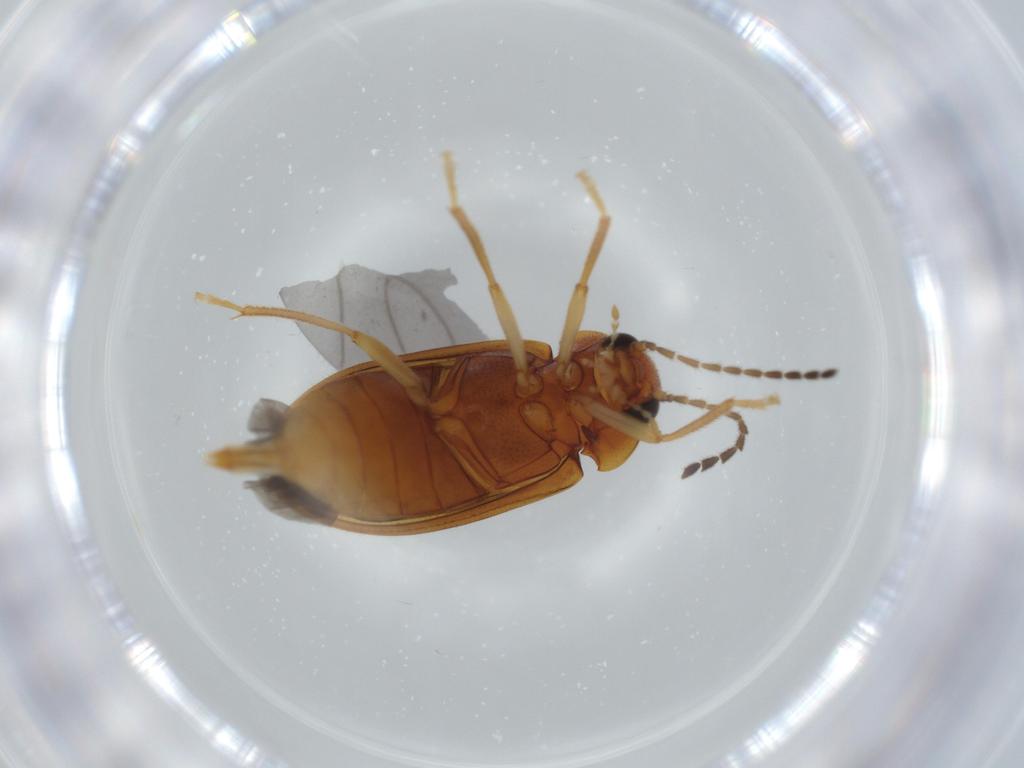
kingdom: Animalia
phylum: Arthropoda
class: Insecta
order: Coleoptera
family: Ptilodactylidae
